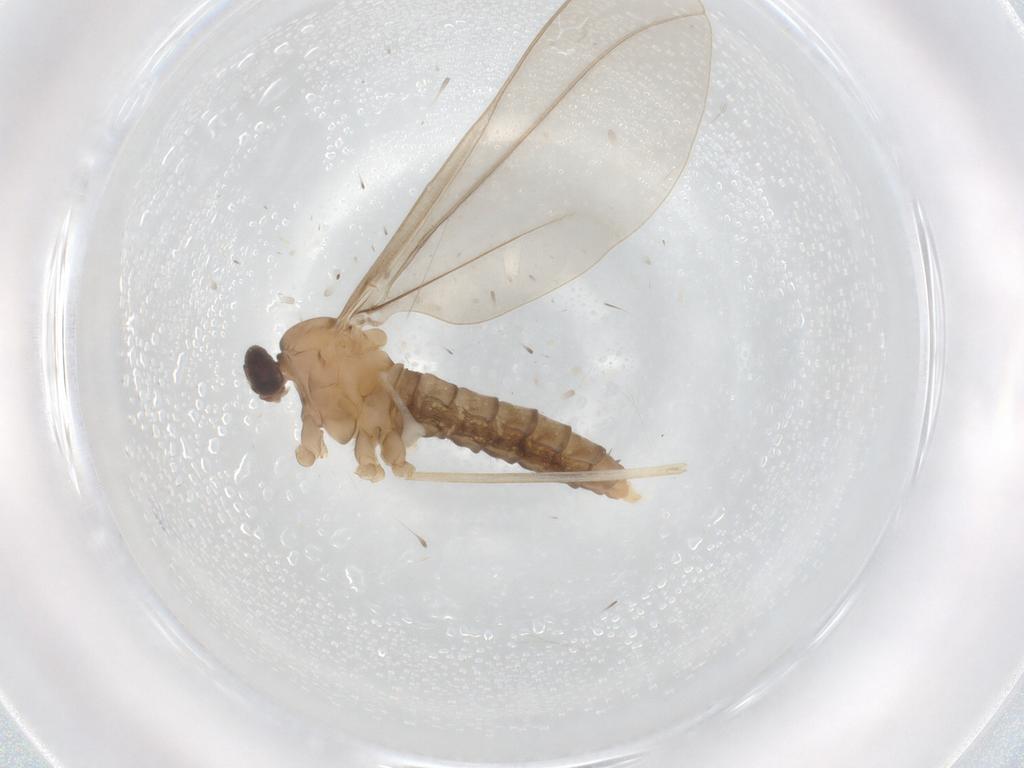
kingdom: Animalia
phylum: Arthropoda
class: Insecta
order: Diptera
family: Cecidomyiidae
